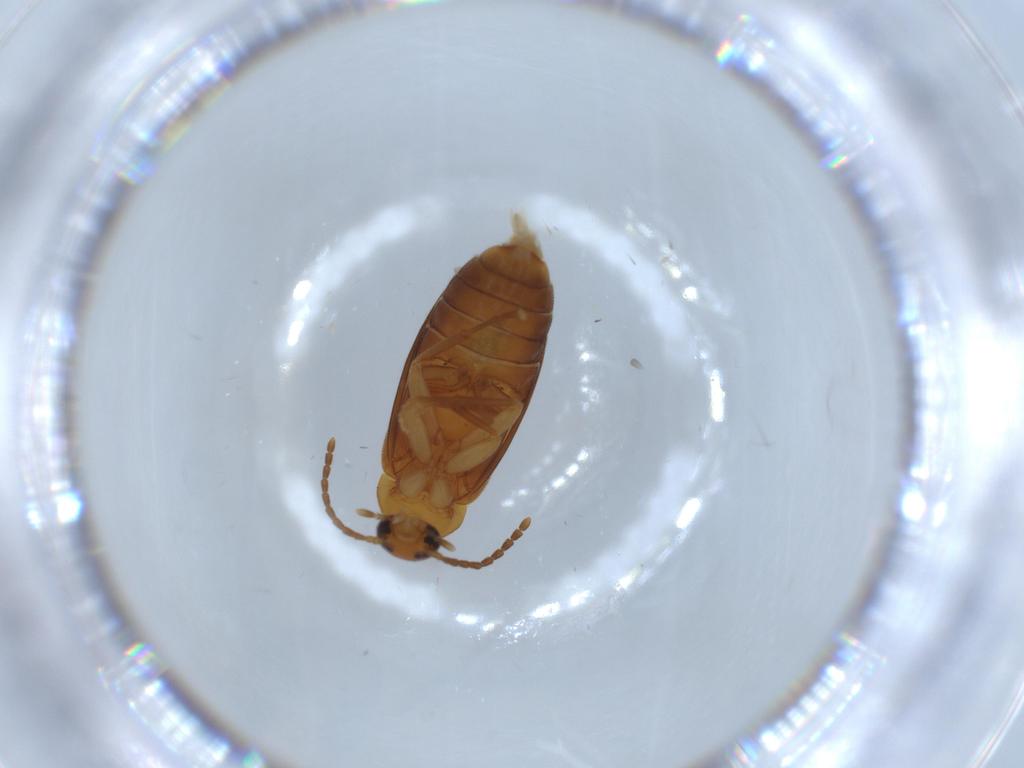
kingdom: Animalia
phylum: Arthropoda
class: Insecta
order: Coleoptera
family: Scraptiidae
